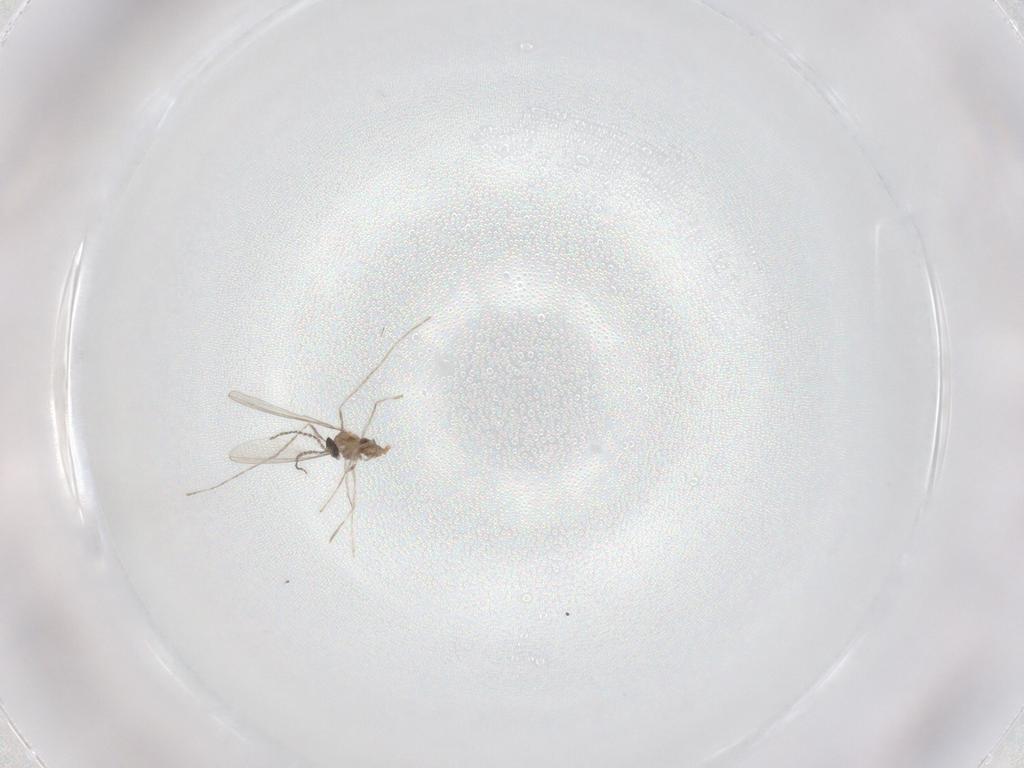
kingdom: Animalia
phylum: Arthropoda
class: Insecta
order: Diptera
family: Cecidomyiidae
